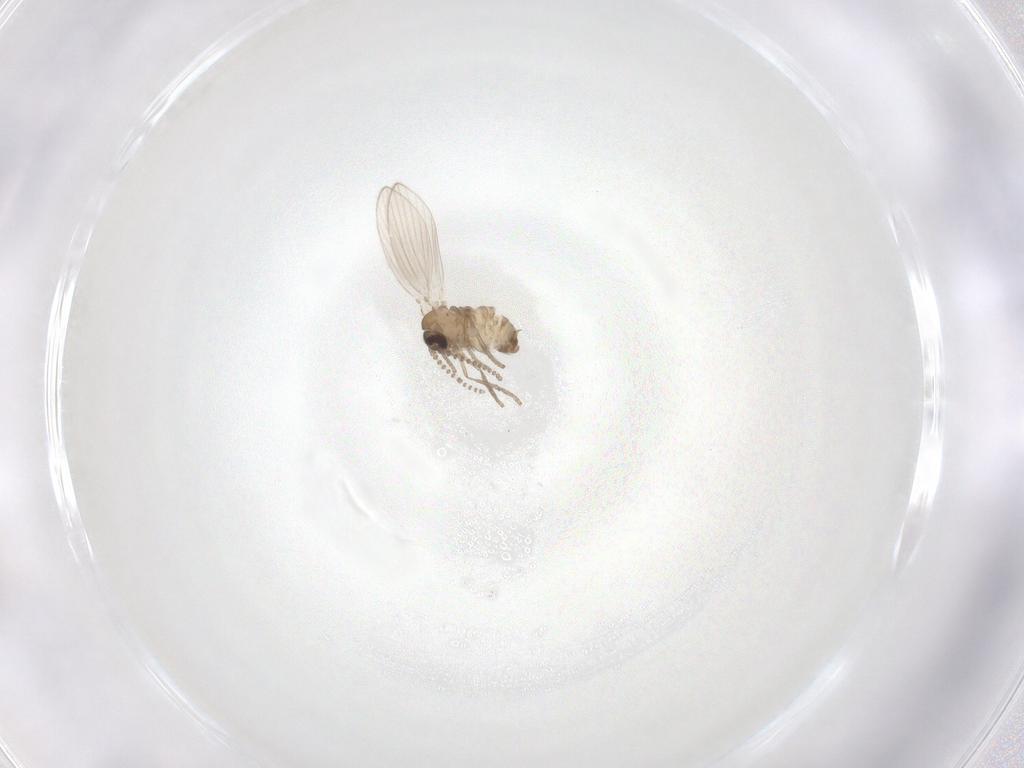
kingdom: Animalia
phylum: Arthropoda
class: Insecta
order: Diptera
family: Psychodidae
